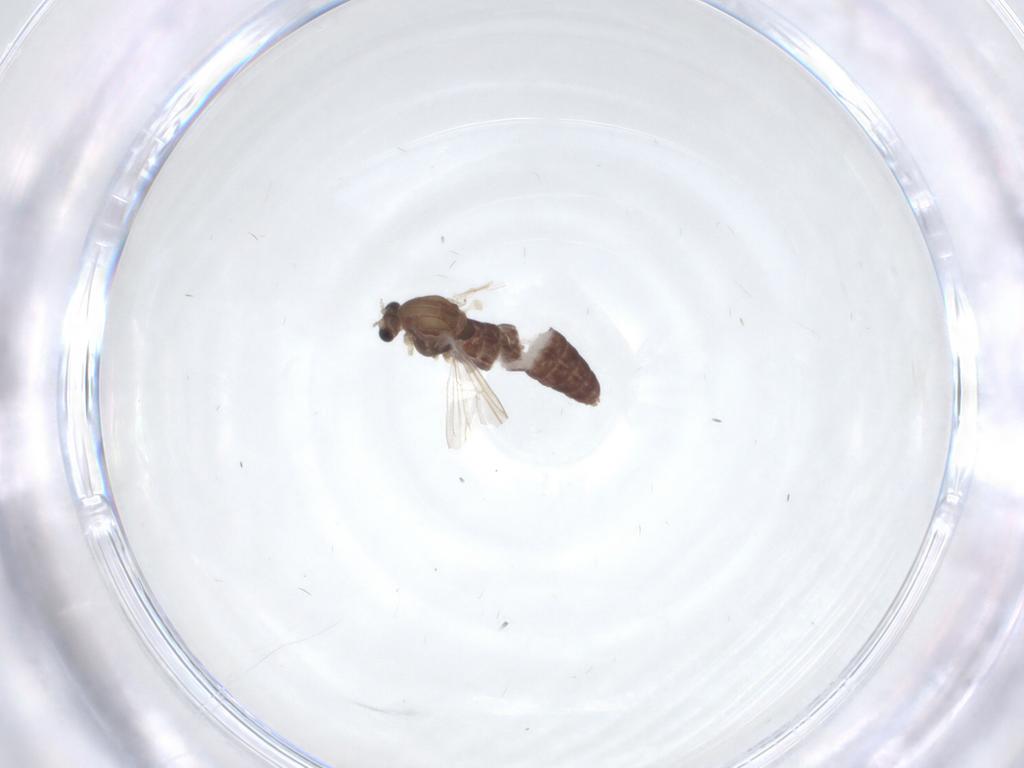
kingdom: Animalia
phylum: Arthropoda
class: Insecta
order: Diptera
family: Chironomidae
